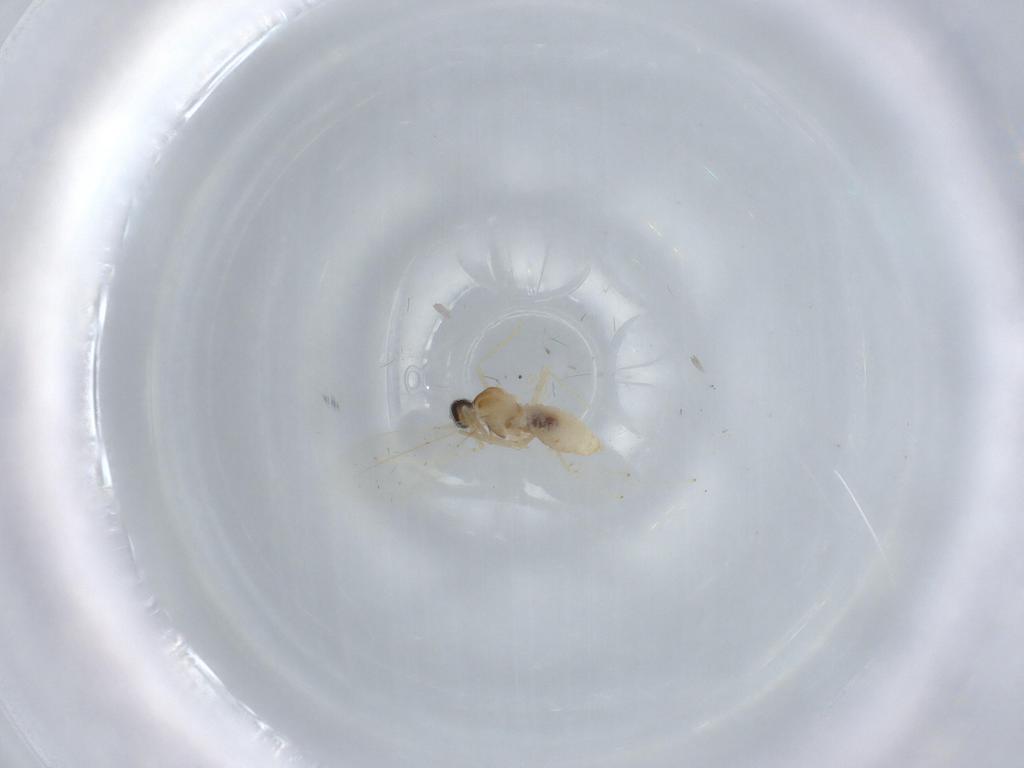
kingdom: Animalia
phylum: Arthropoda
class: Insecta
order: Diptera
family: Cecidomyiidae
